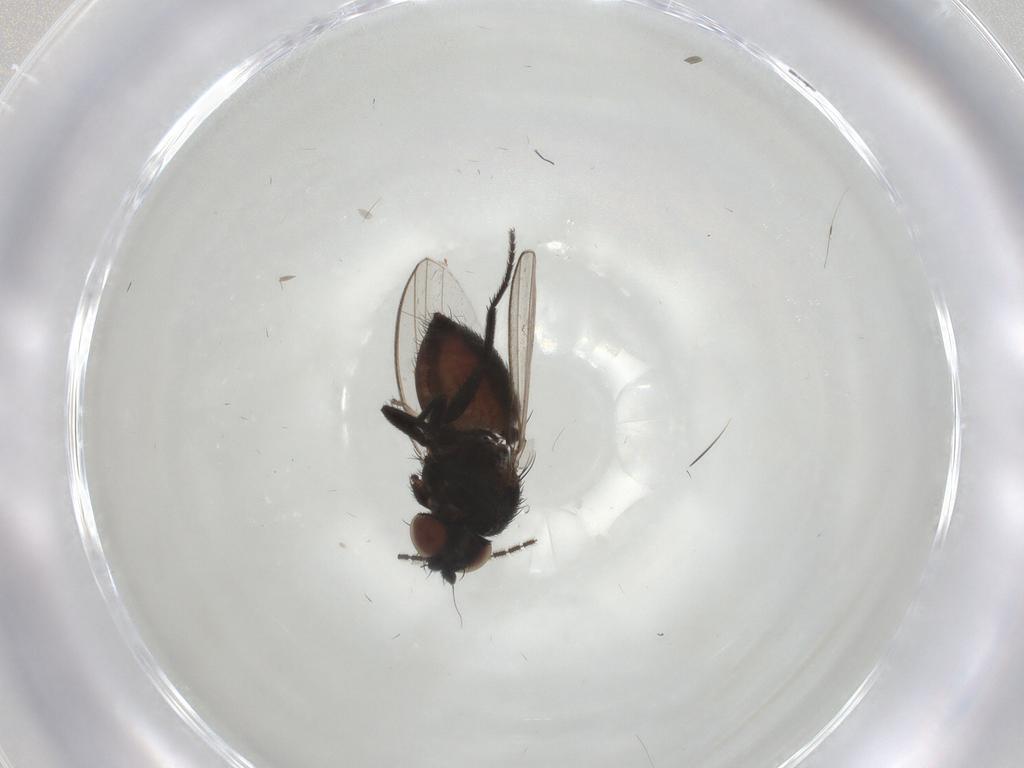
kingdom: Animalia
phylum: Arthropoda
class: Insecta
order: Diptera
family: Milichiidae
